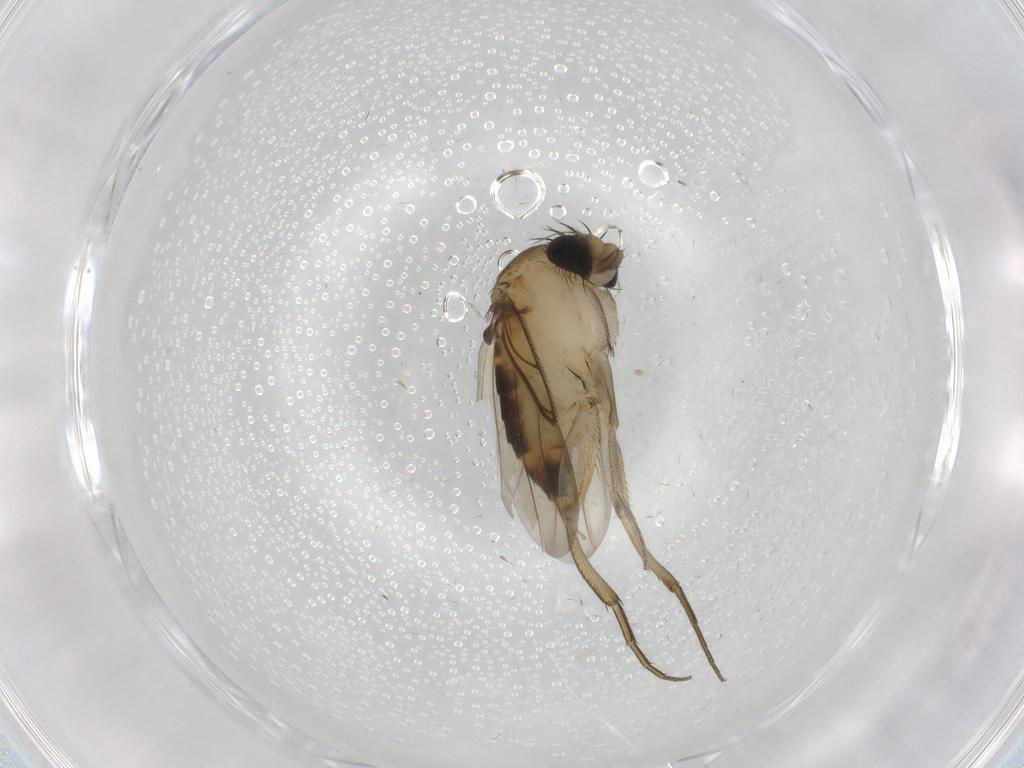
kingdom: Animalia
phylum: Arthropoda
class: Insecta
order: Diptera
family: Phoridae
